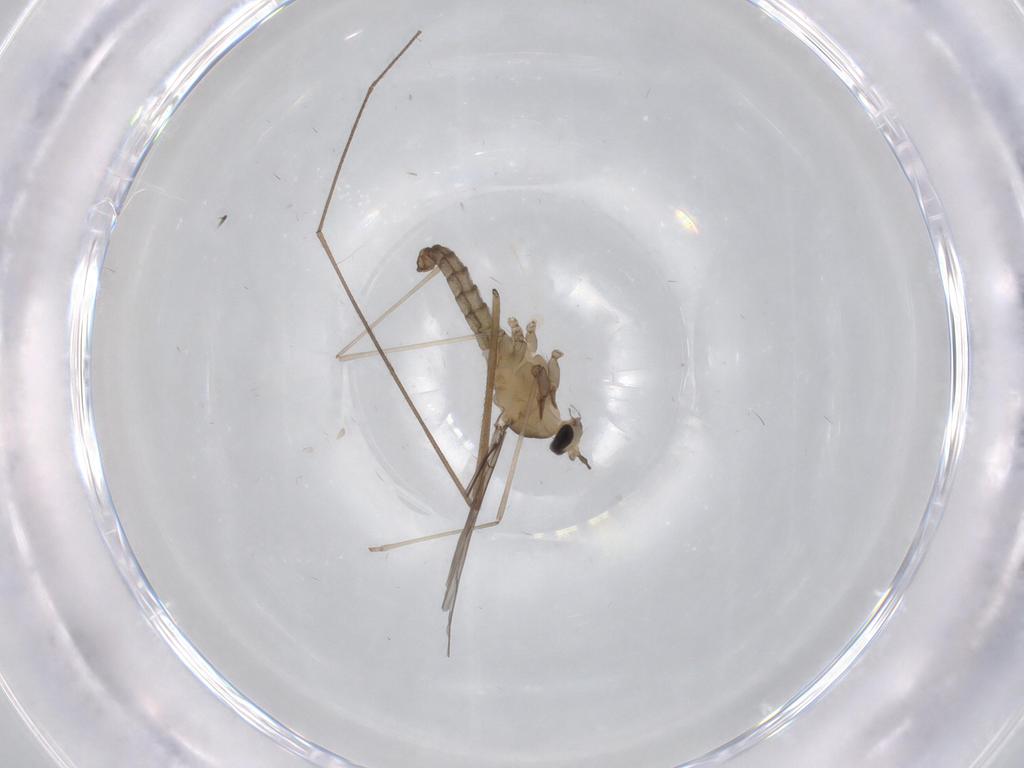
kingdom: Animalia
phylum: Arthropoda
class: Insecta
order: Diptera
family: Cecidomyiidae
